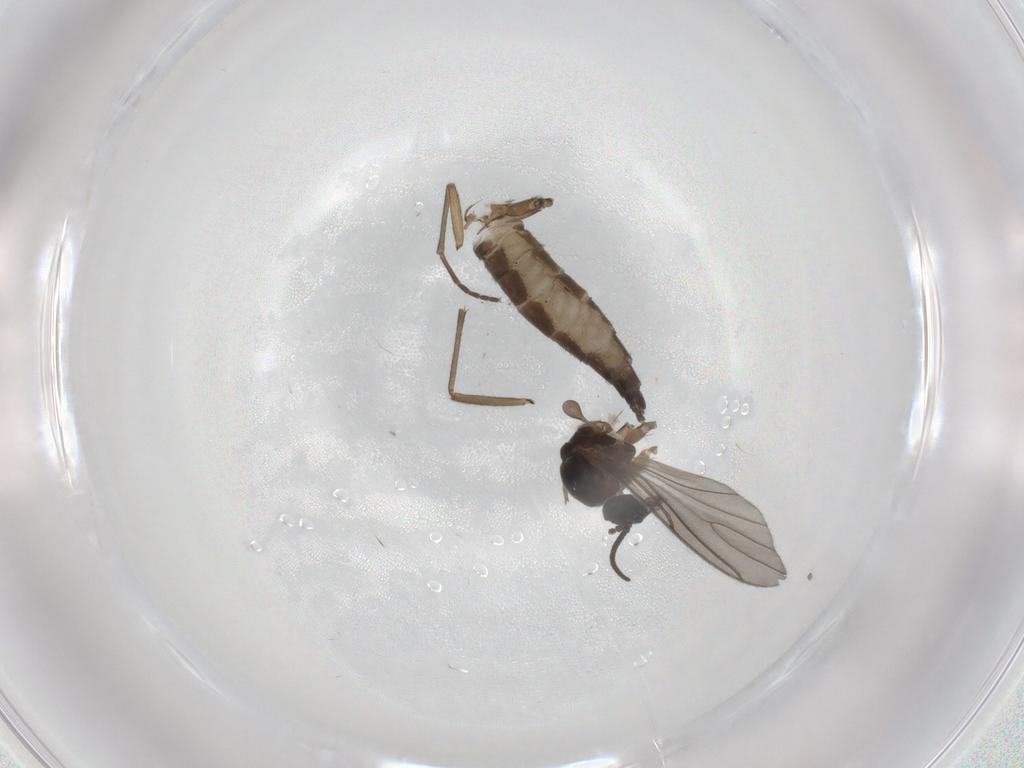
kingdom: Animalia
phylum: Arthropoda
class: Insecta
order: Diptera
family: Sciaridae
